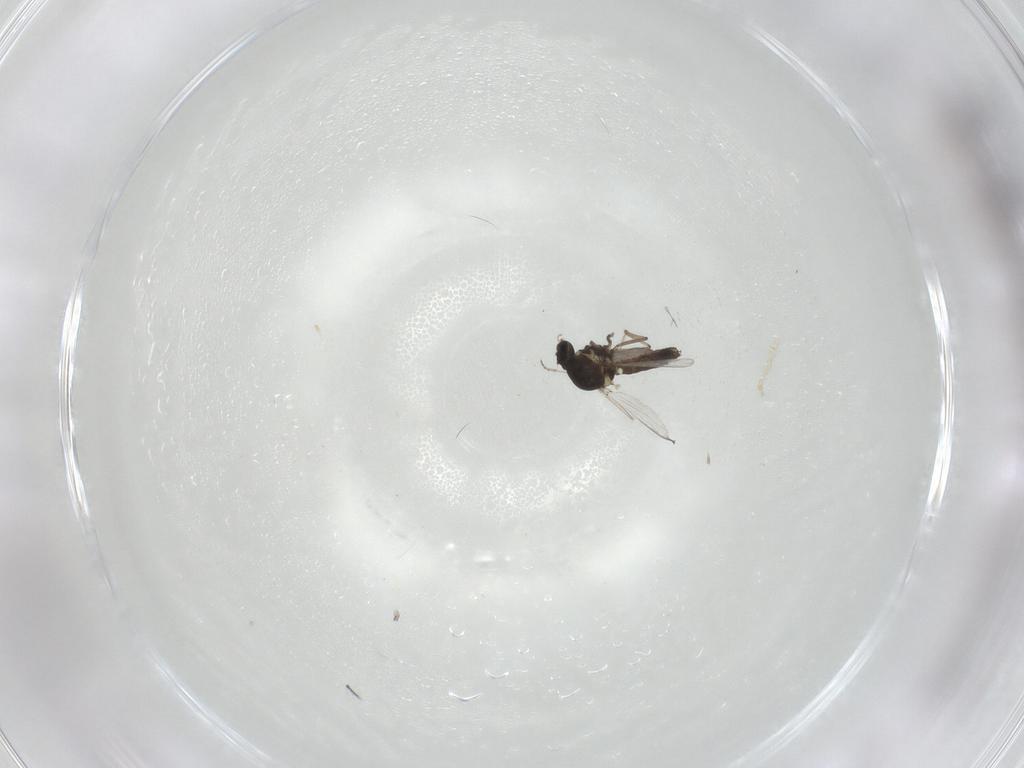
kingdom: Animalia
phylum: Arthropoda
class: Insecta
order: Diptera
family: Ceratopogonidae
